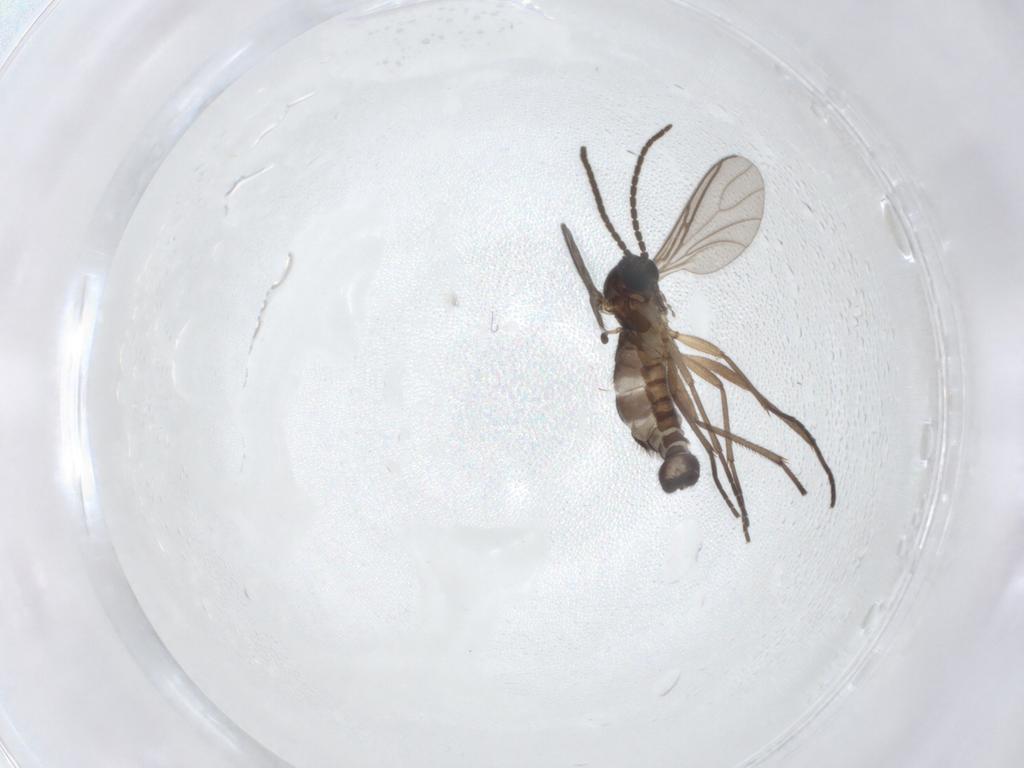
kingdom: Animalia
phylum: Arthropoda
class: Insecta
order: Diptera
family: Sciaridae
